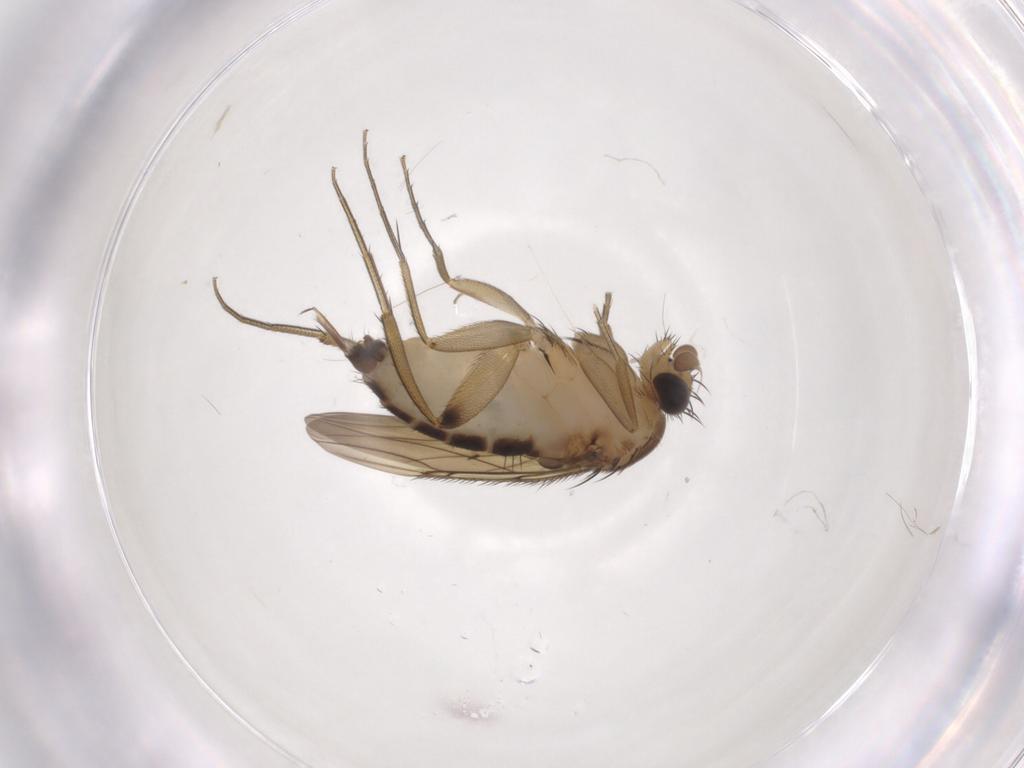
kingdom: Animalia
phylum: Arthropoda
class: Insecta
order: Diptera
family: Phoridae
